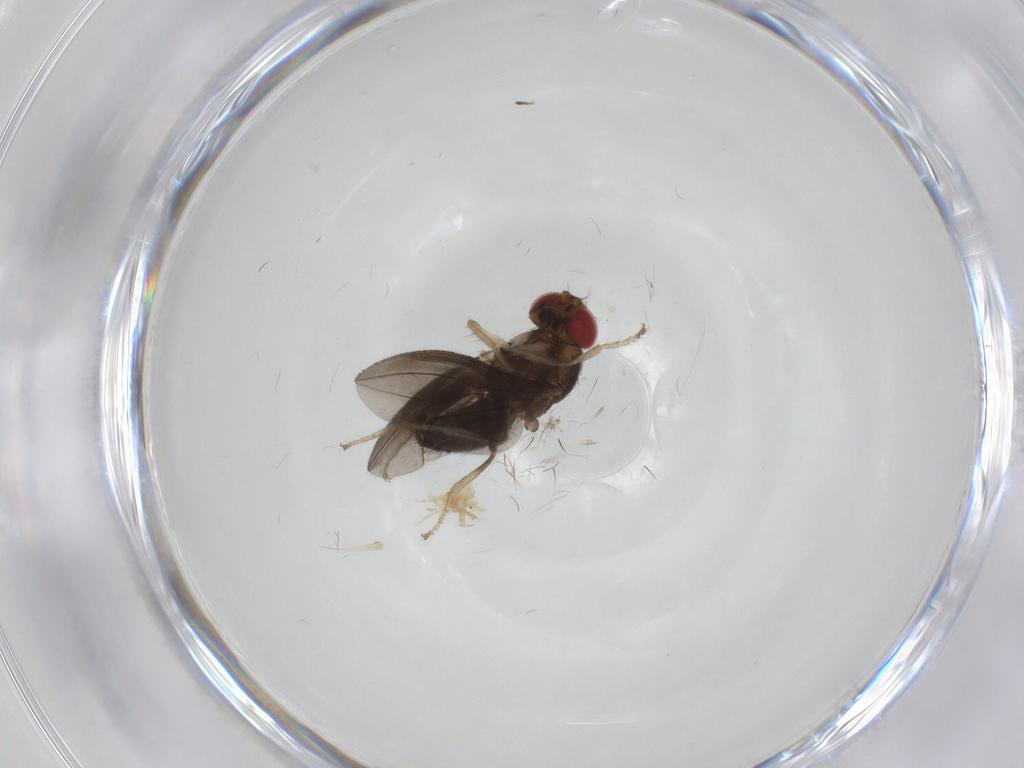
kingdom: Animalia
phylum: Arthropoda
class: Insecta
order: Diptera
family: Drosophilidae
